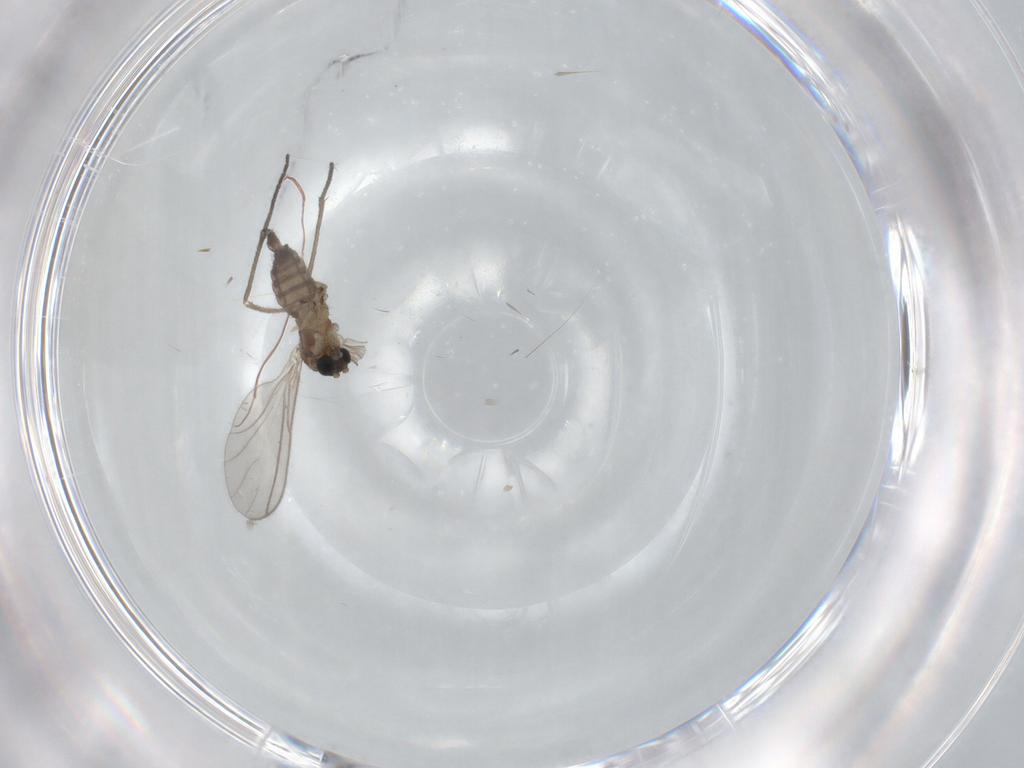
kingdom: Animalia
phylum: Arthropoda
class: Insecta
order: Diptera
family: Sciaridae
